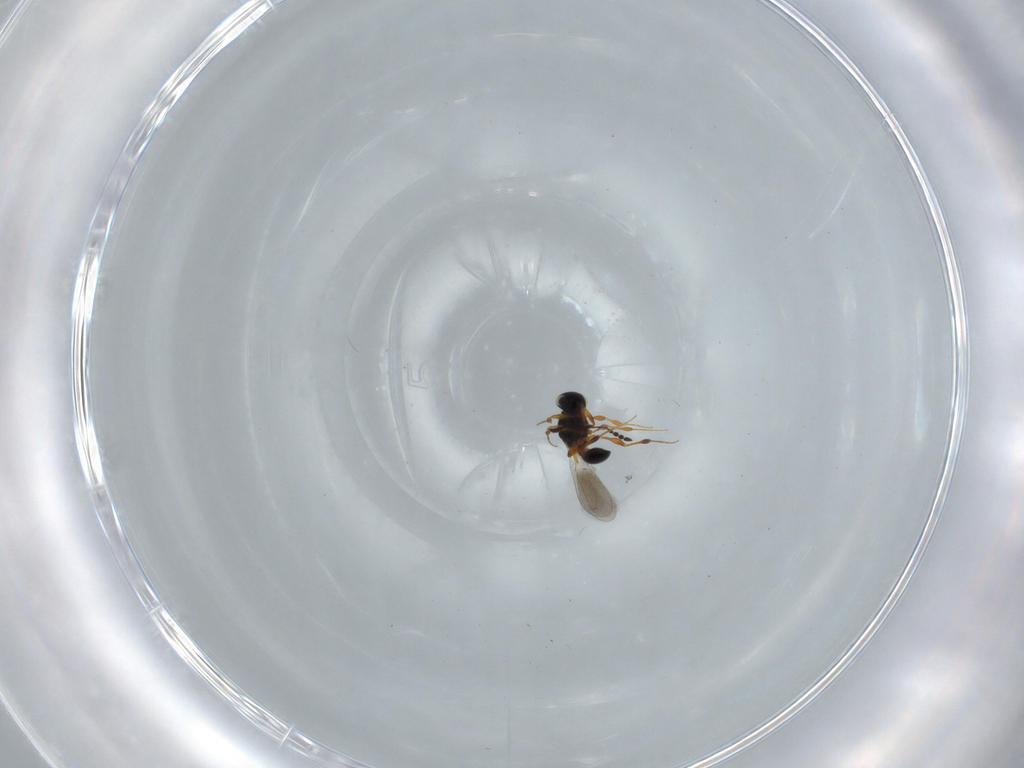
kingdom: Animalia
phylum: Arthropoda
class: Insecta
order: Hymenoptera
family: Platygastridae
